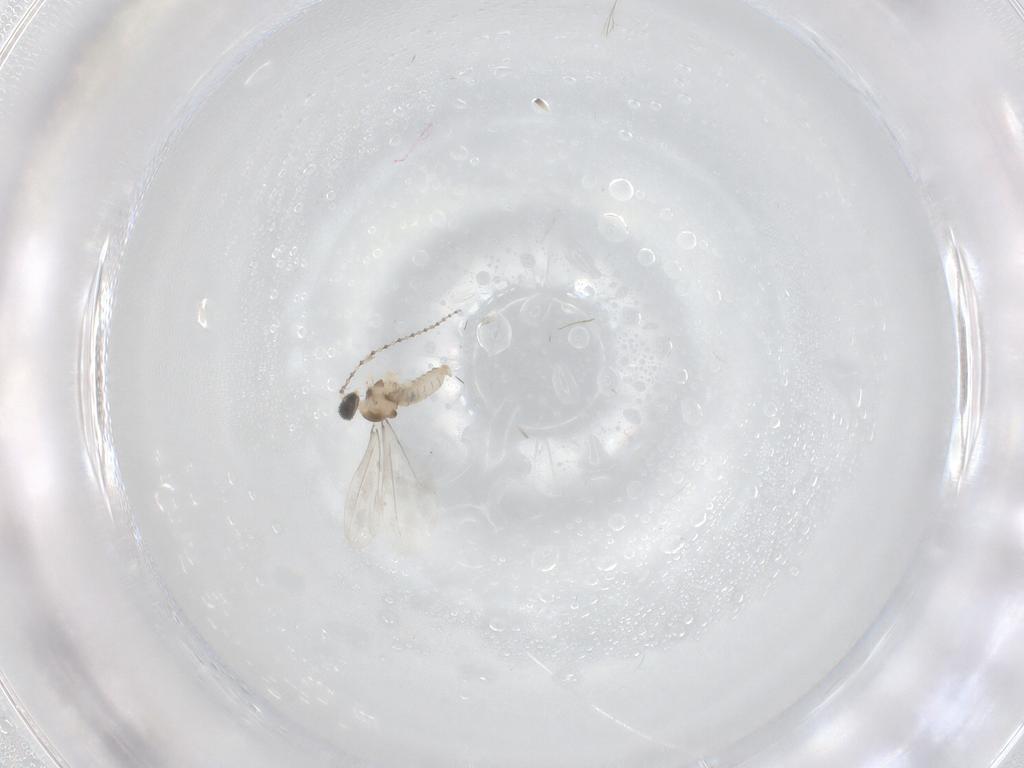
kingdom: Animalia
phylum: Arthropoda
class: Insecta
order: Diptera
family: Cecidomyiidae
